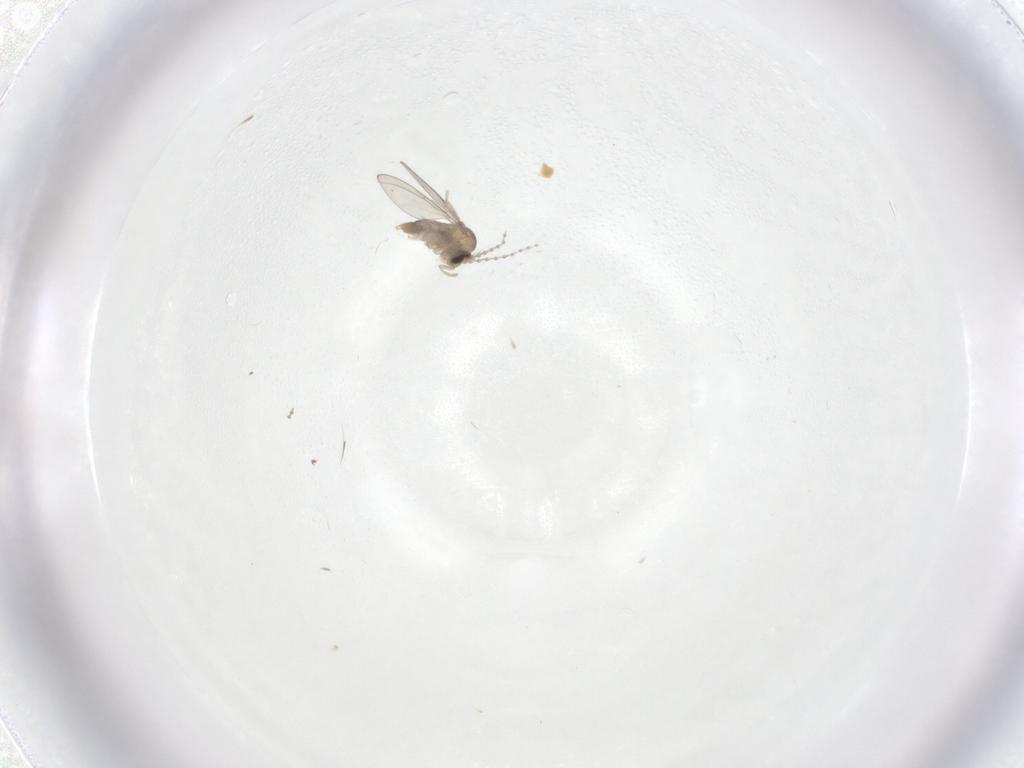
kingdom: Animalia
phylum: Arthropoda
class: Insecta
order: Diptera
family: Cecidomyiidae
